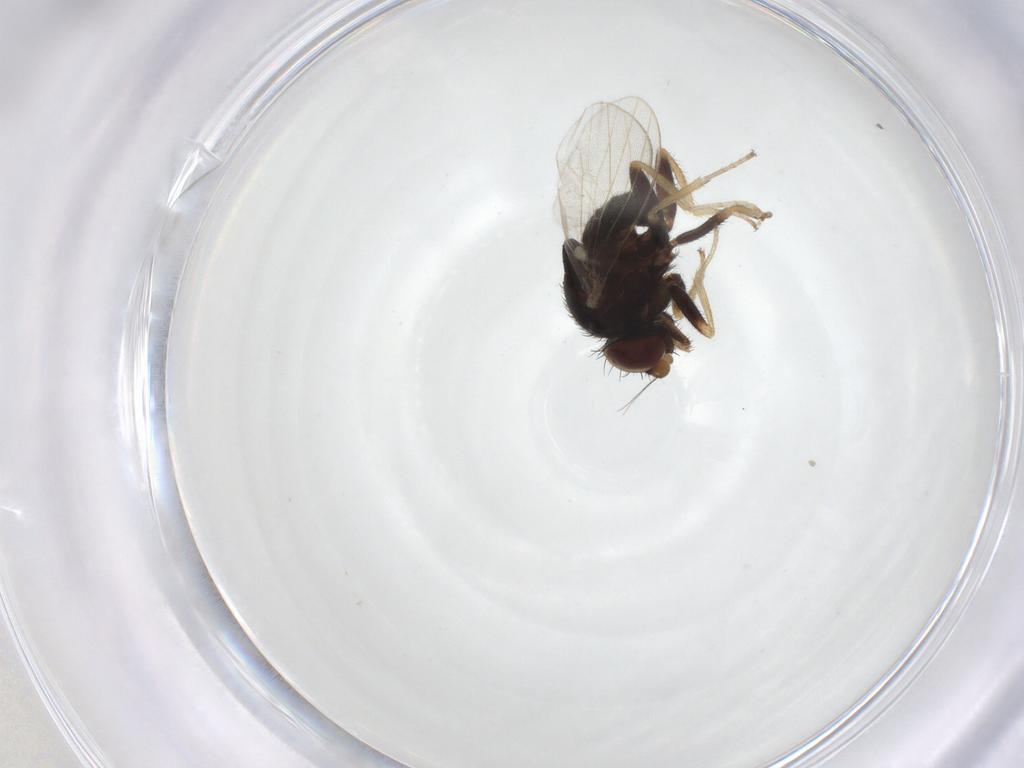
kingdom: Animalia
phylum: Arthropoda
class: Insecta
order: Diptera
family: Milichiidae
